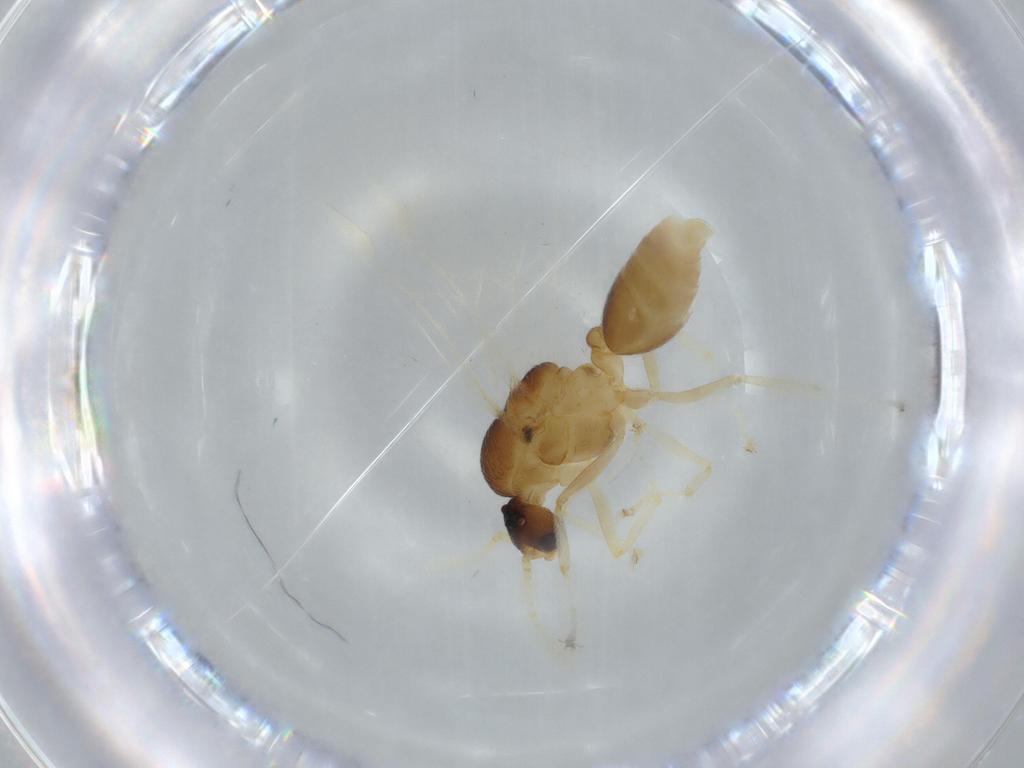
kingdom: Animalia
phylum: Arthropoda
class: Insecta
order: Hymenoptera
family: Formicidae
